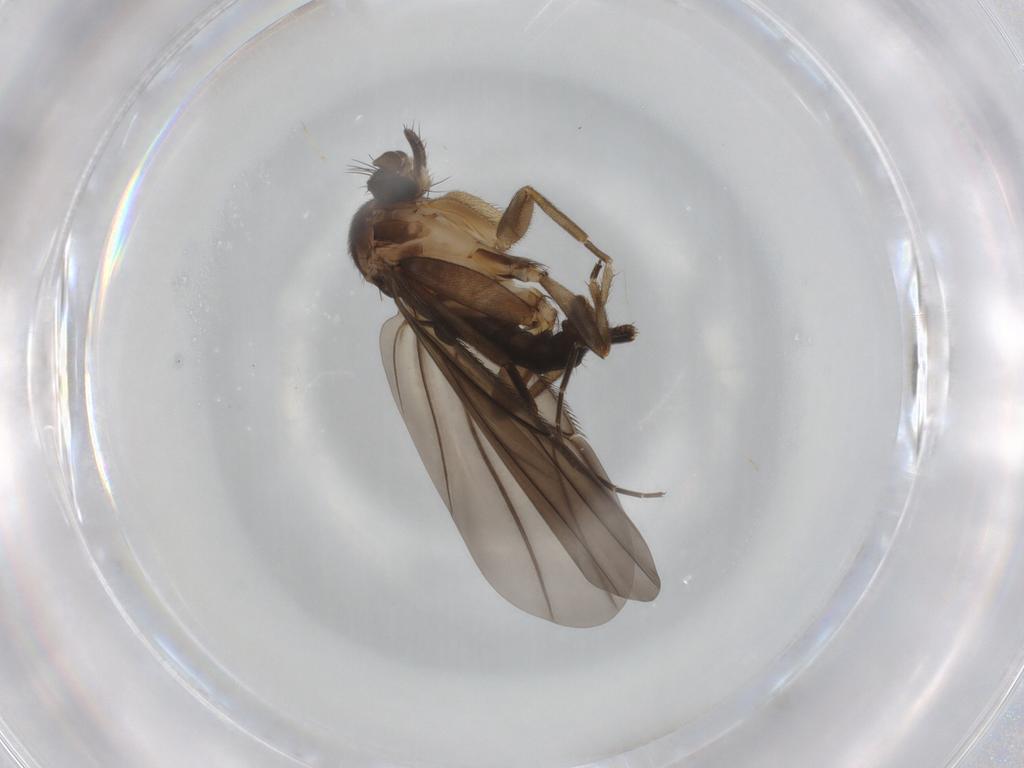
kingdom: Animalia
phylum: Arthropoda
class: Insecta
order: Diptera
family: Phoridae
